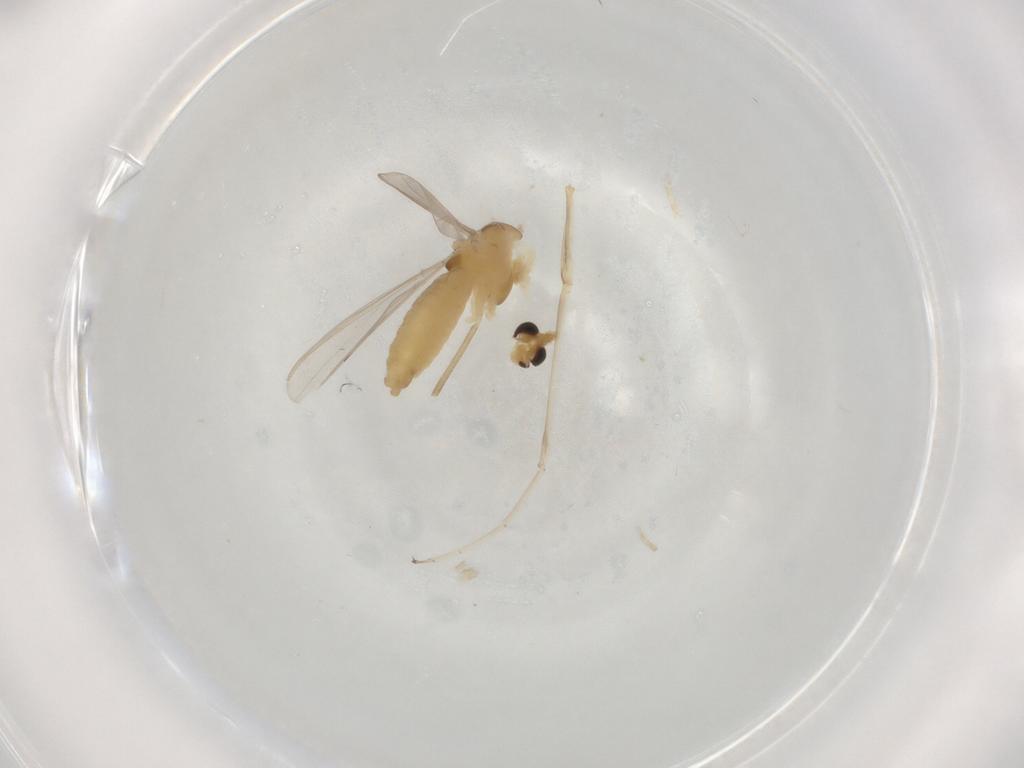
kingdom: Animalia
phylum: Arthropoda
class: Insecta
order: Diptera
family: Chironomidae
